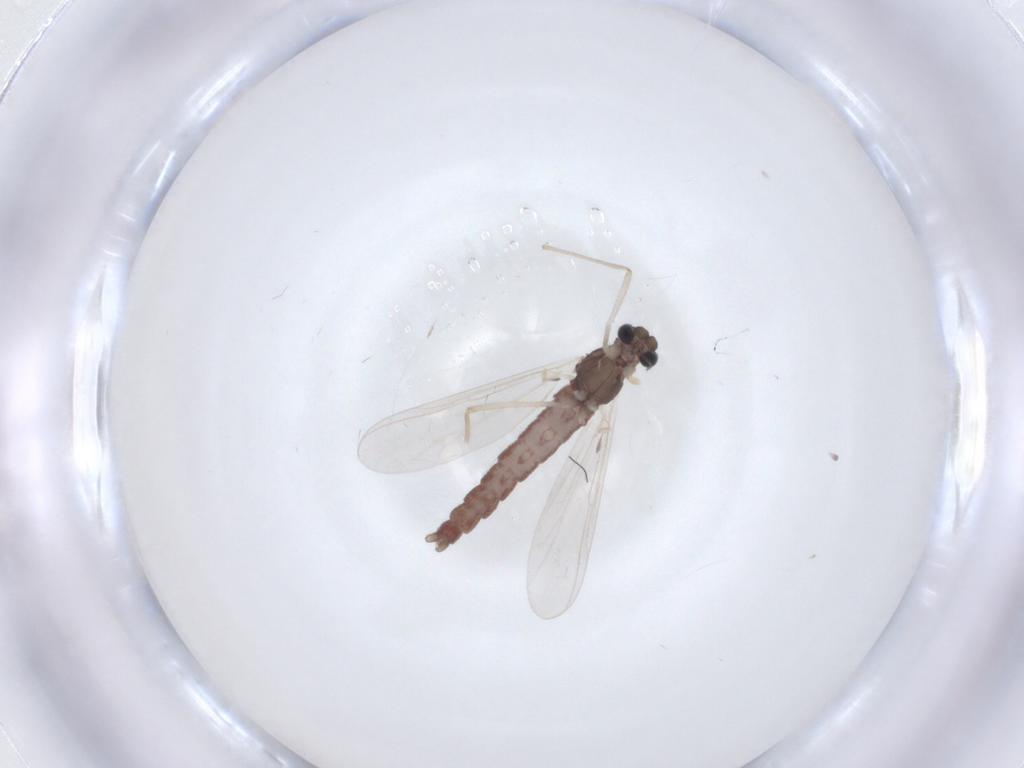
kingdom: Animalia
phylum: Arthropoda
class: Insecta
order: Diptera
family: Chironomidae
